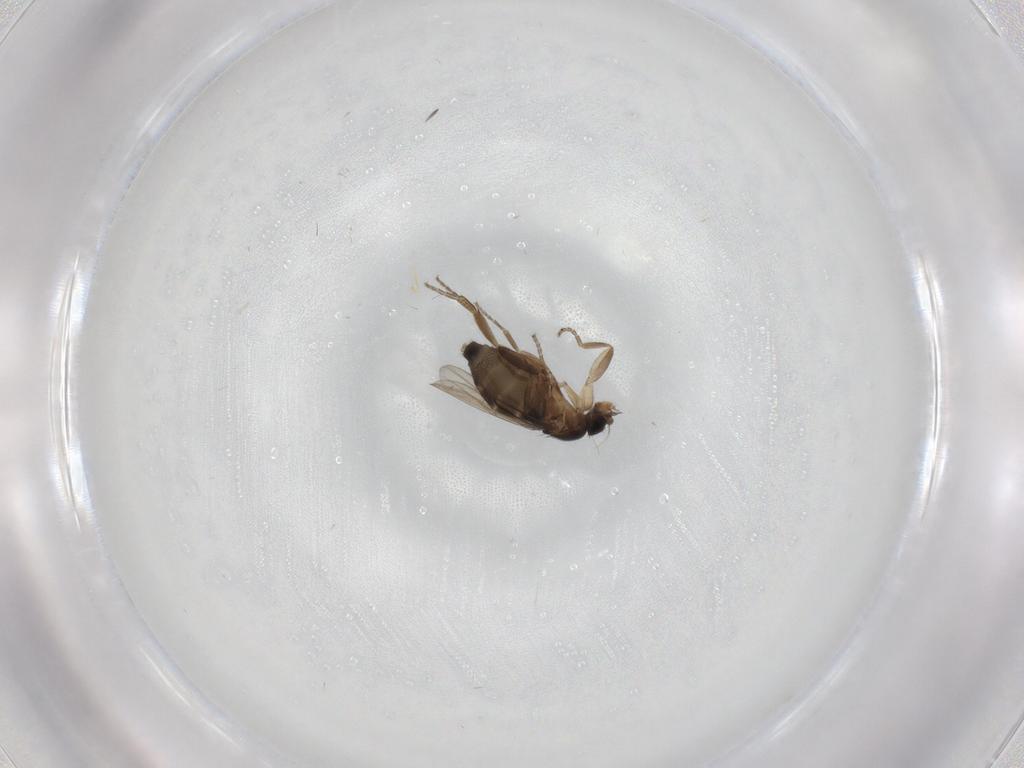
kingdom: Animalia
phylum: Arthropoda
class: Insecta
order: Diptera
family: Phoridae
